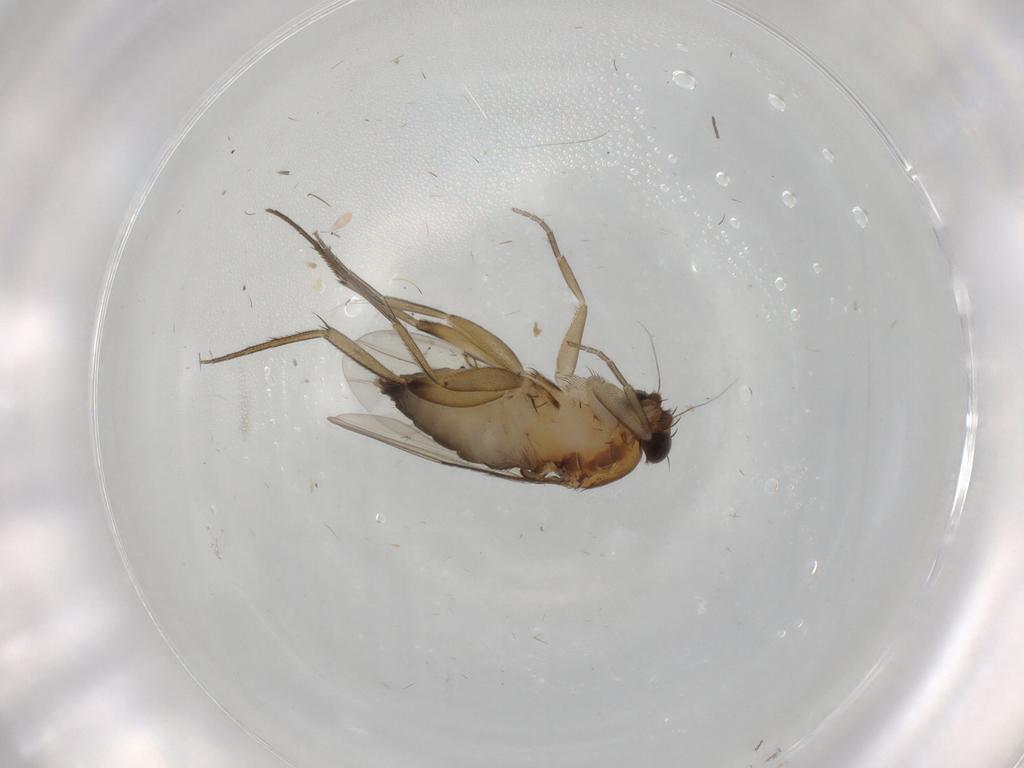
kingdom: Animalia
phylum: Arthropoda
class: Insecta
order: Diptera
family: Phoridae
